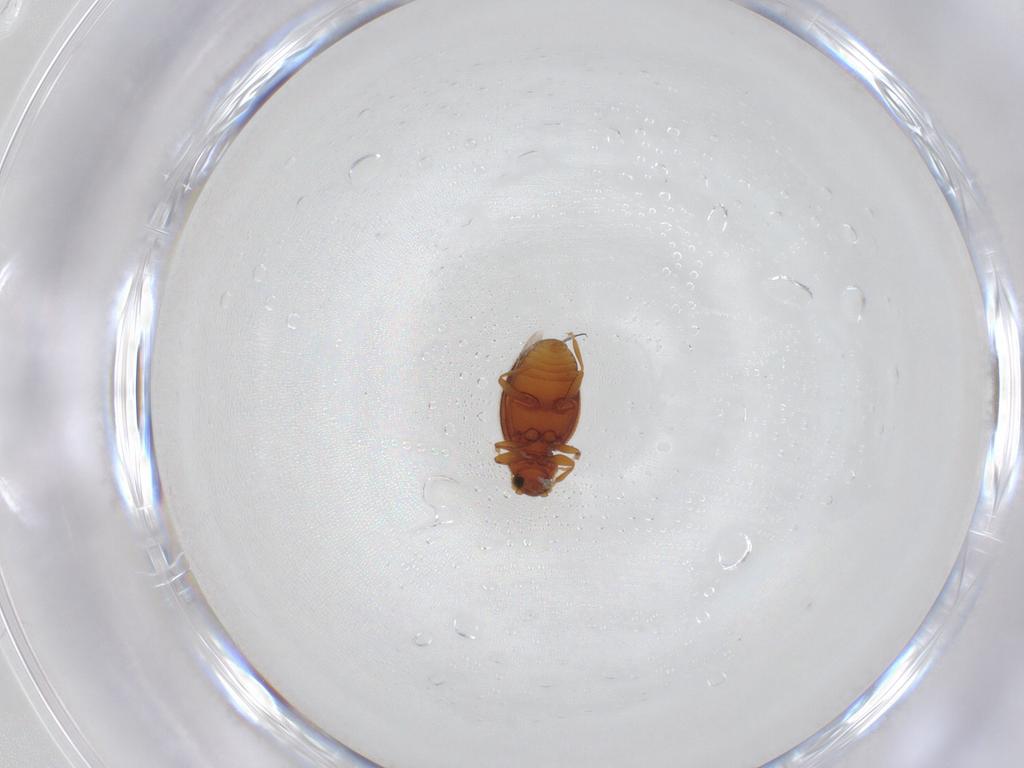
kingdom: Animalia
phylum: Arthropoda
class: Insecta
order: Coleoptera
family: Latridiidae
